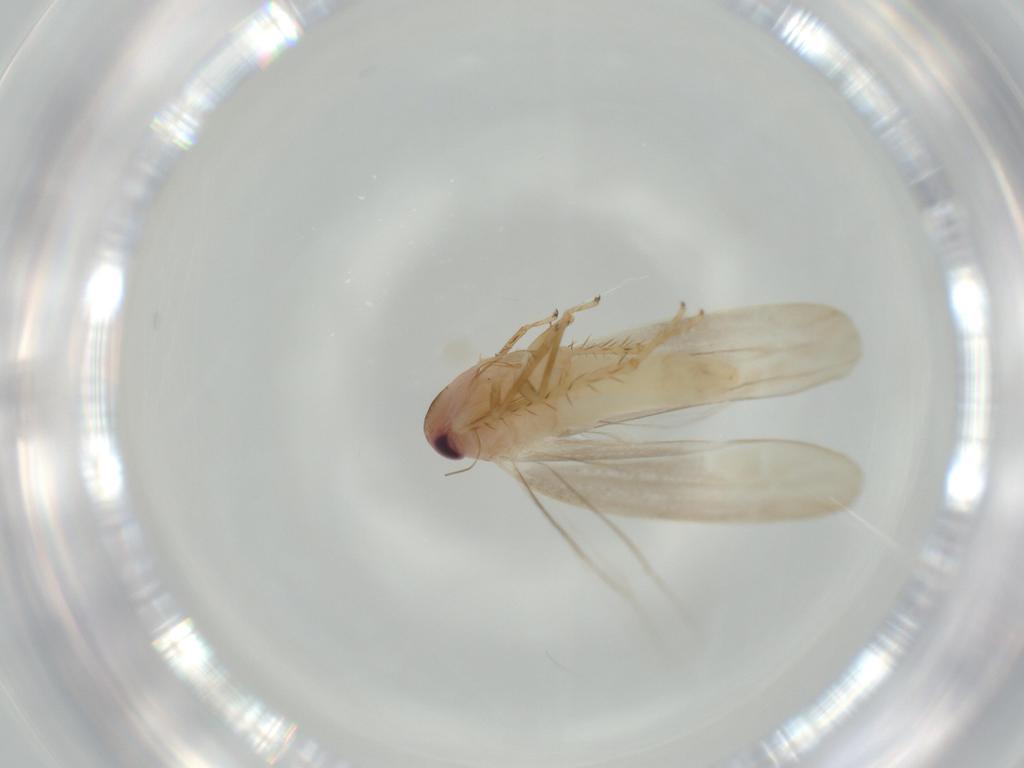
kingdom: Animalia
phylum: Arthropoda
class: Insecta
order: Hemiptera
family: Cicadellidae
